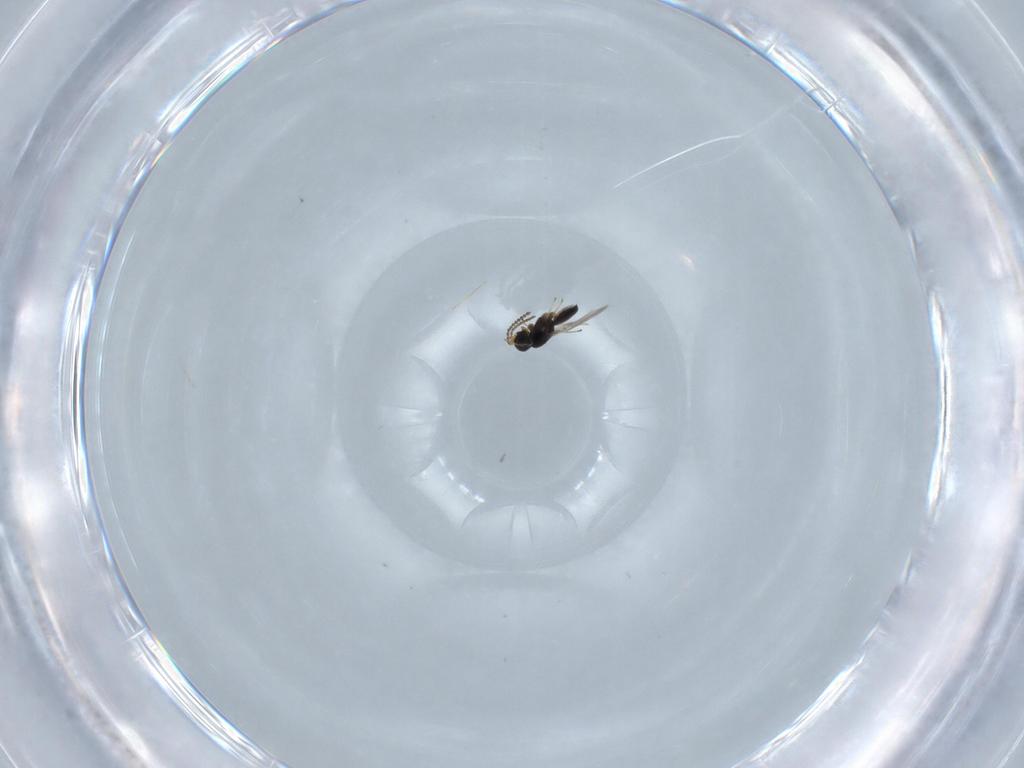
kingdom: Animalia
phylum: Arthropoda
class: Insecta
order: Hymenoptera
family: Scelionidae
